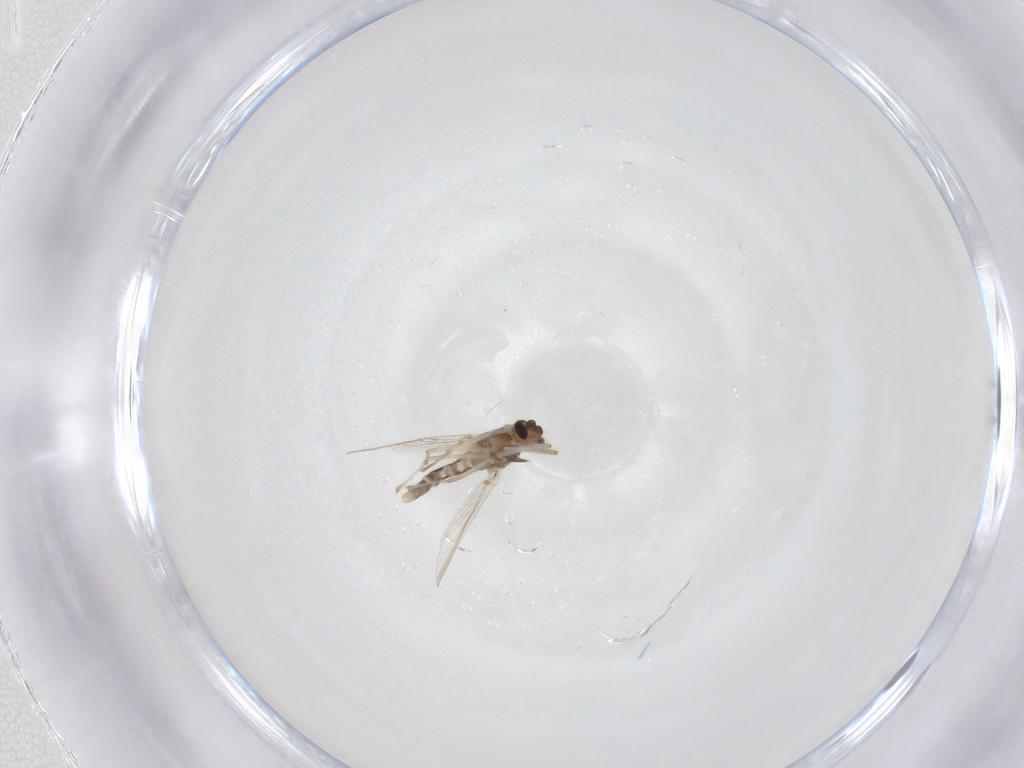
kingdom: Animalia
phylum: Arthropoda
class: Insecta
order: Diptera
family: Chironomidae
